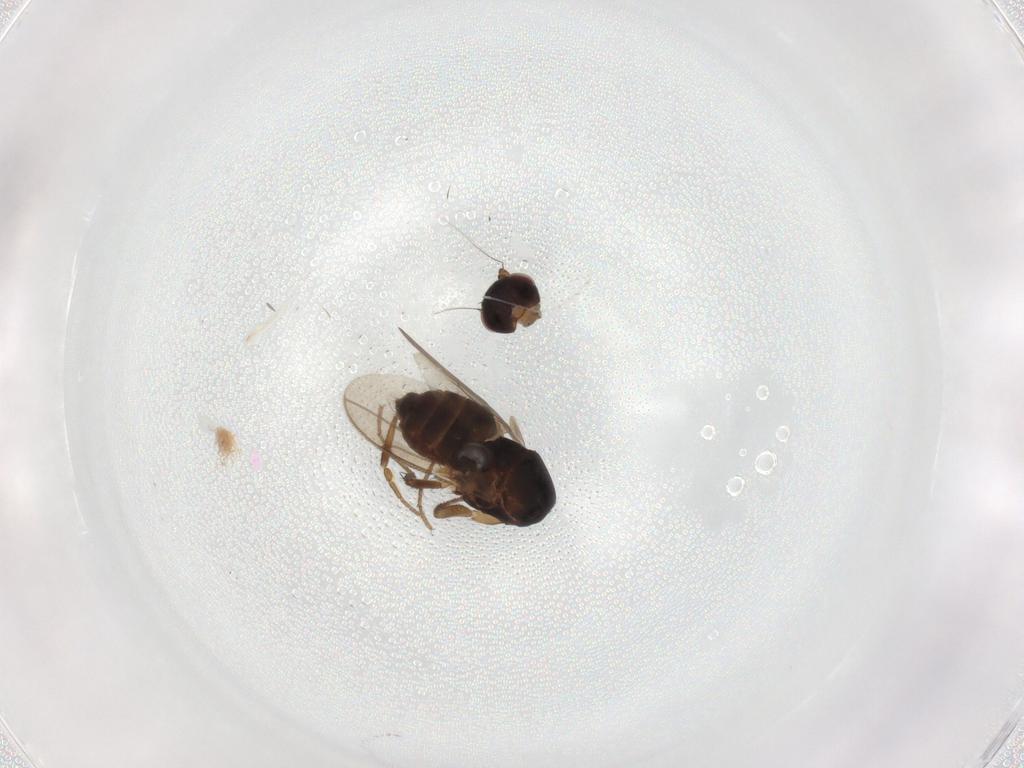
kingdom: Animalia
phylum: Arthropoda
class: Insecta
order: Diptera
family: Sphaeroceridae
